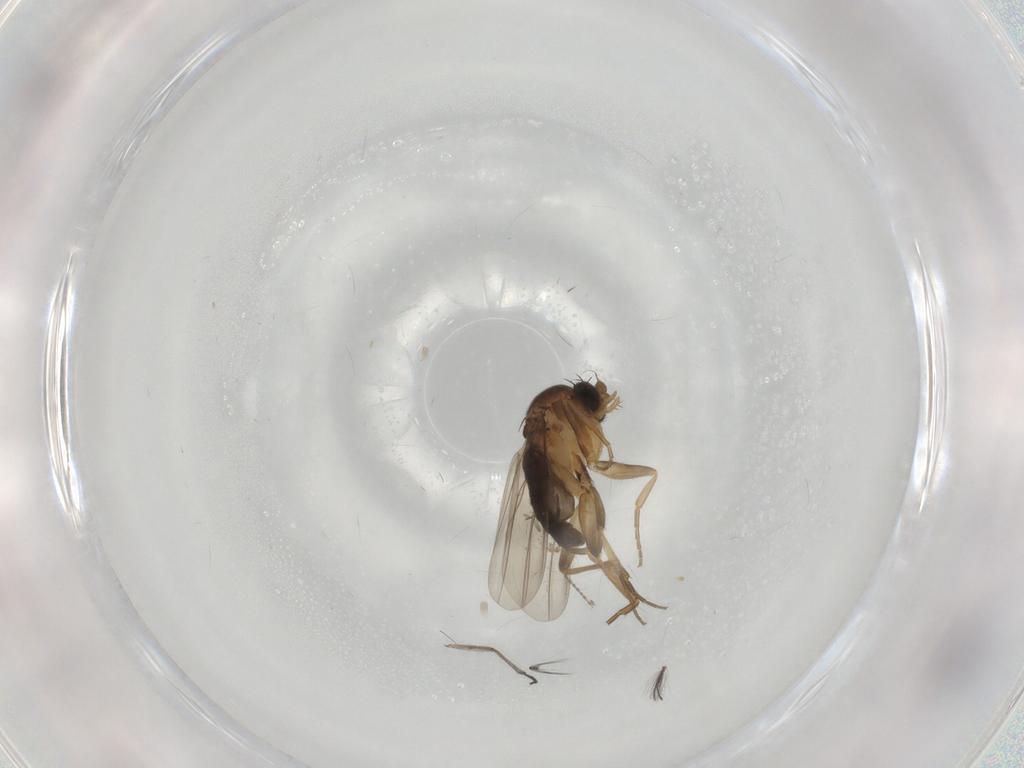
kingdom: Animalia
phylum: Arthropoda
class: Insecta
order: Diptera
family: Phoridae
